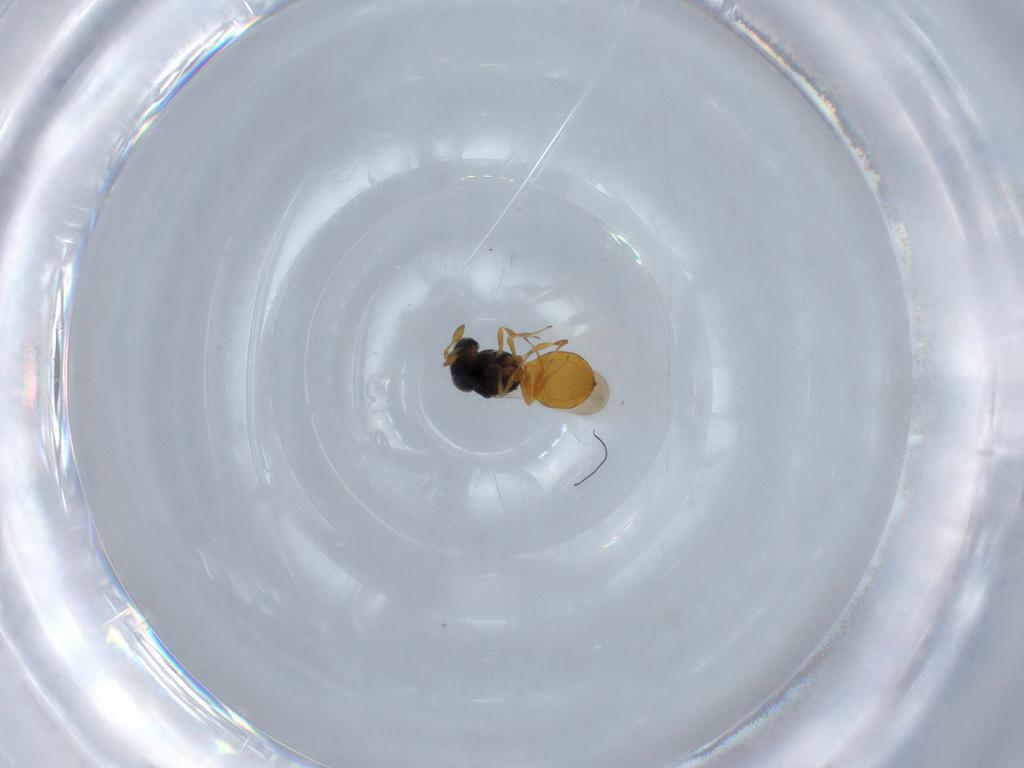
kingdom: Animalia
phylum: Arthropoda
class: Insecta
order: Hymenoptera
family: Scelionidae
